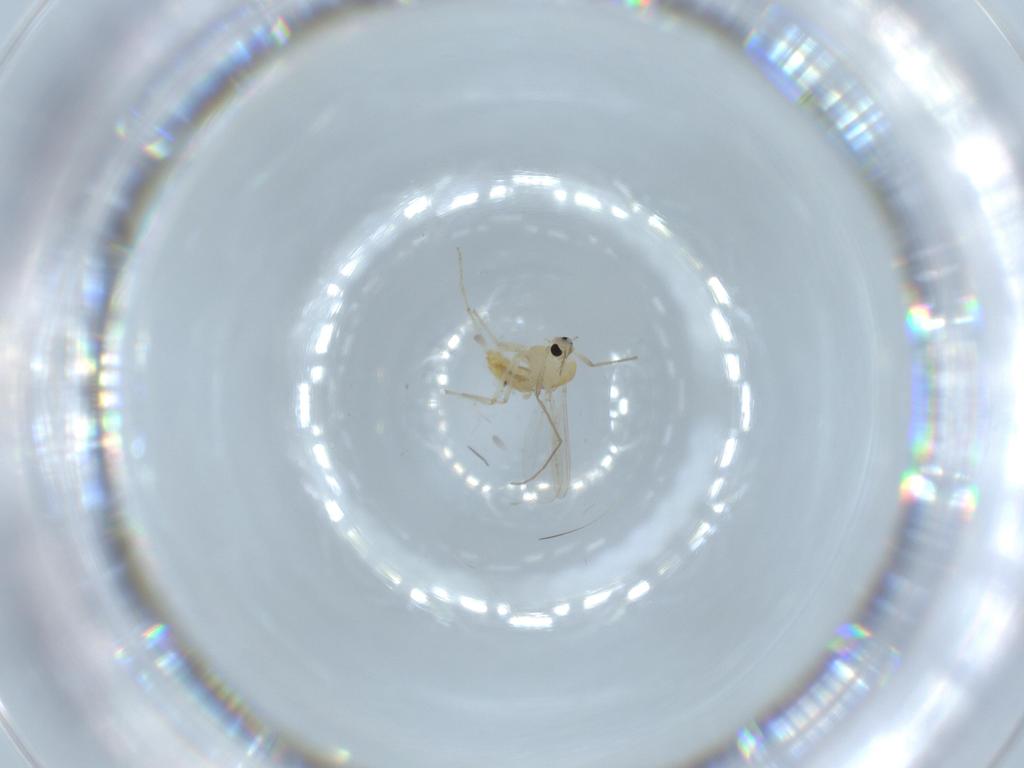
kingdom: Animalia
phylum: Arthropoda
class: Insecta
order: Diptera
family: Chironomidae
